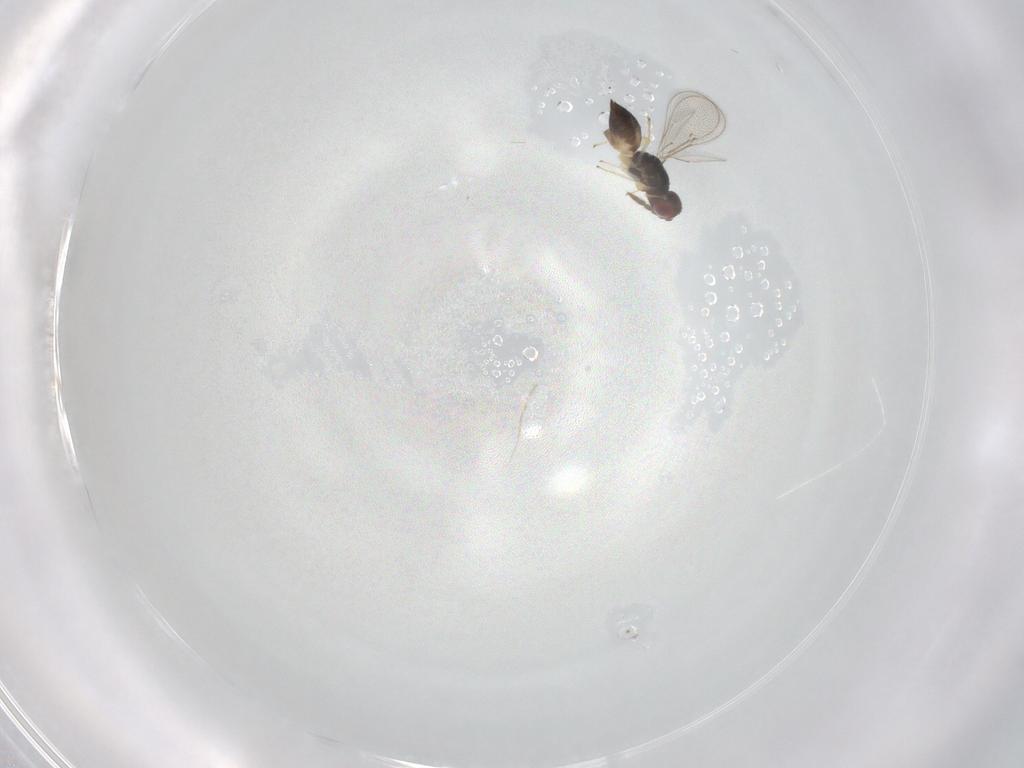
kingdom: Animalia
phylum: Arthropoda
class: Insecta
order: Hymenoptera
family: Eulophidae
